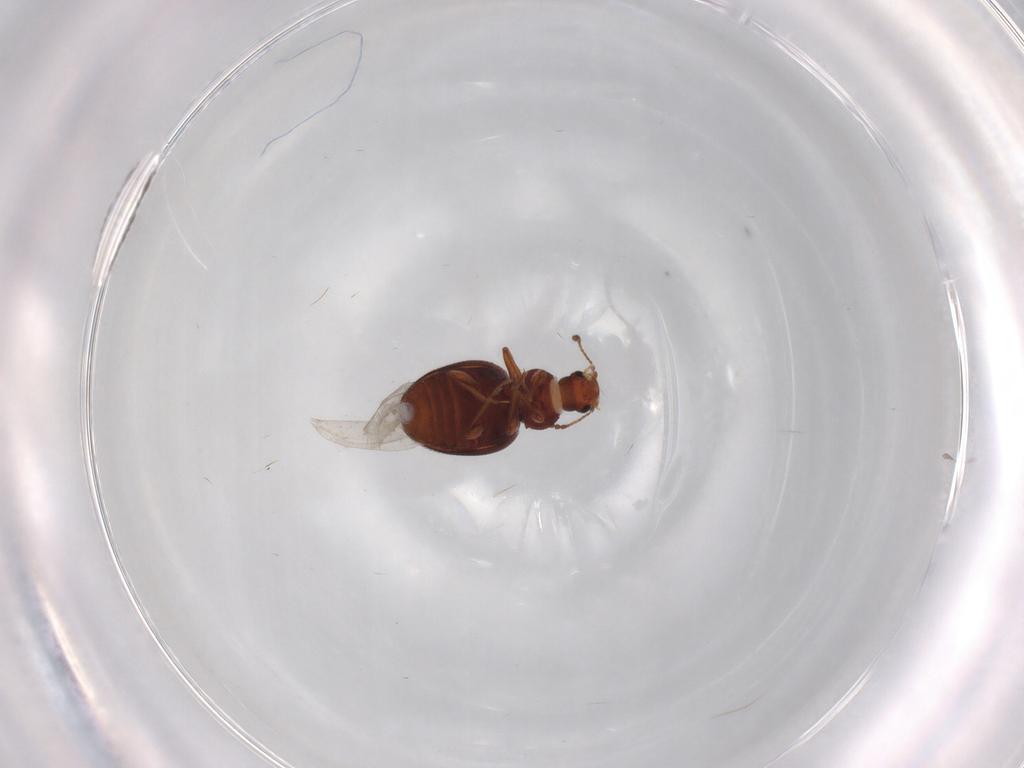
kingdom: Animalia
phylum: Arthropoda
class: Insecta
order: Coleoptera
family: Latridiidae
